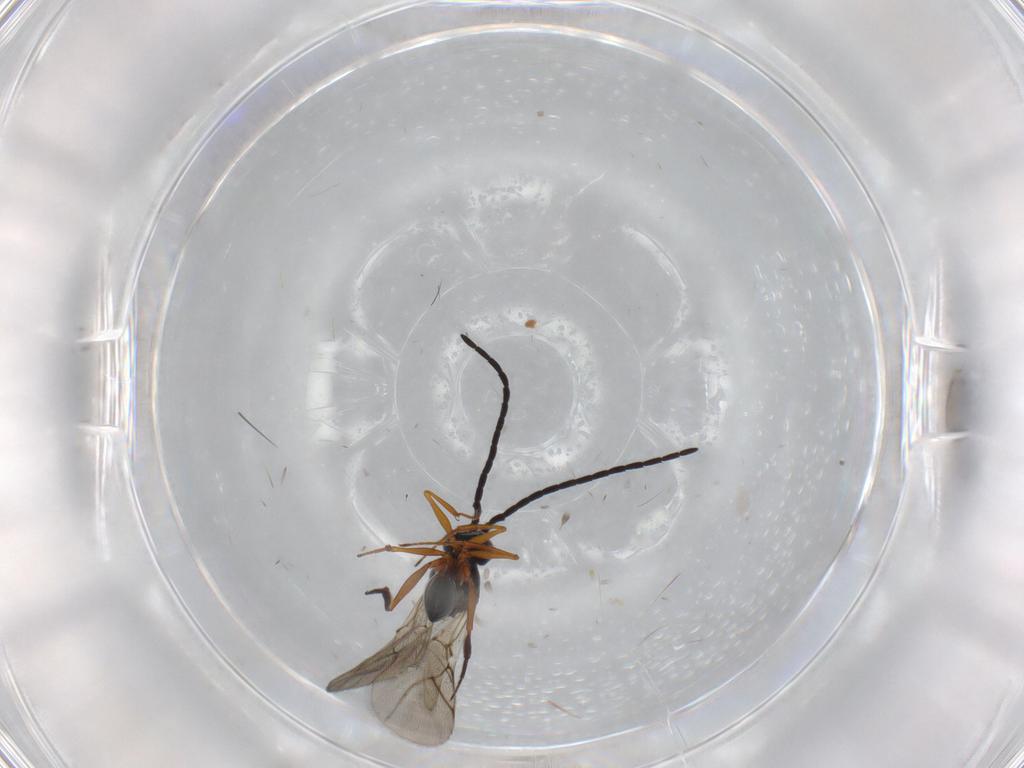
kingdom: Animalia
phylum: Arthropoda
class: Insecta
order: Hymenoptera
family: Figitidae
